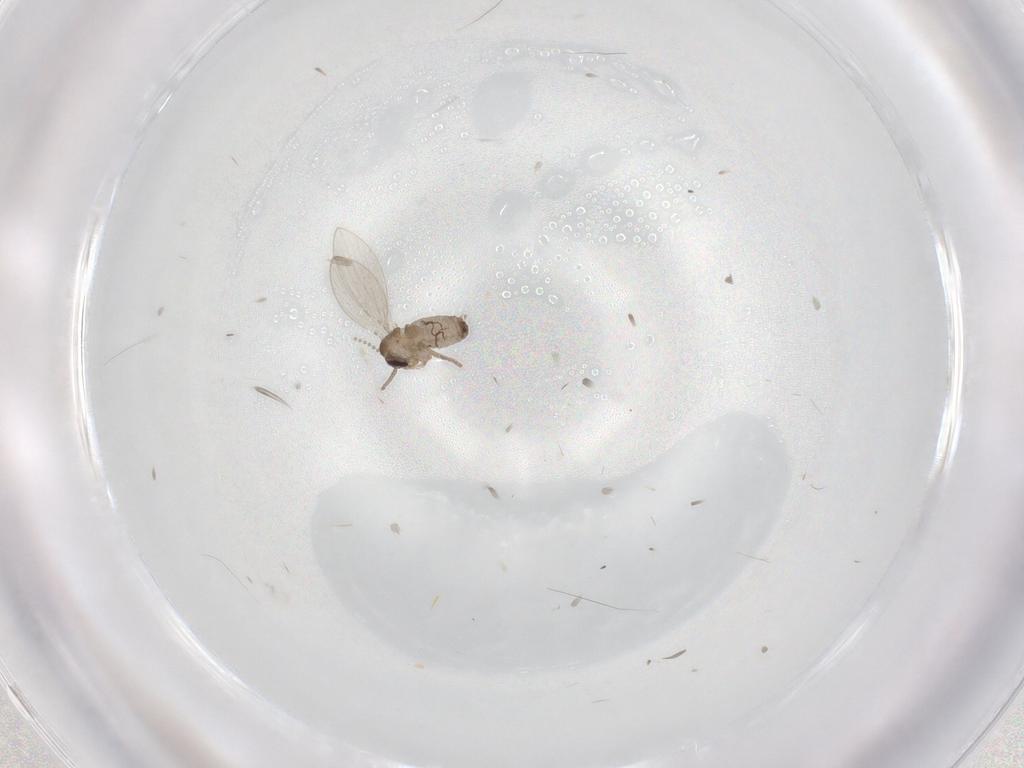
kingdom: Animalia
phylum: Arthropoda
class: Insecta
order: Diptera
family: Psychodidae
